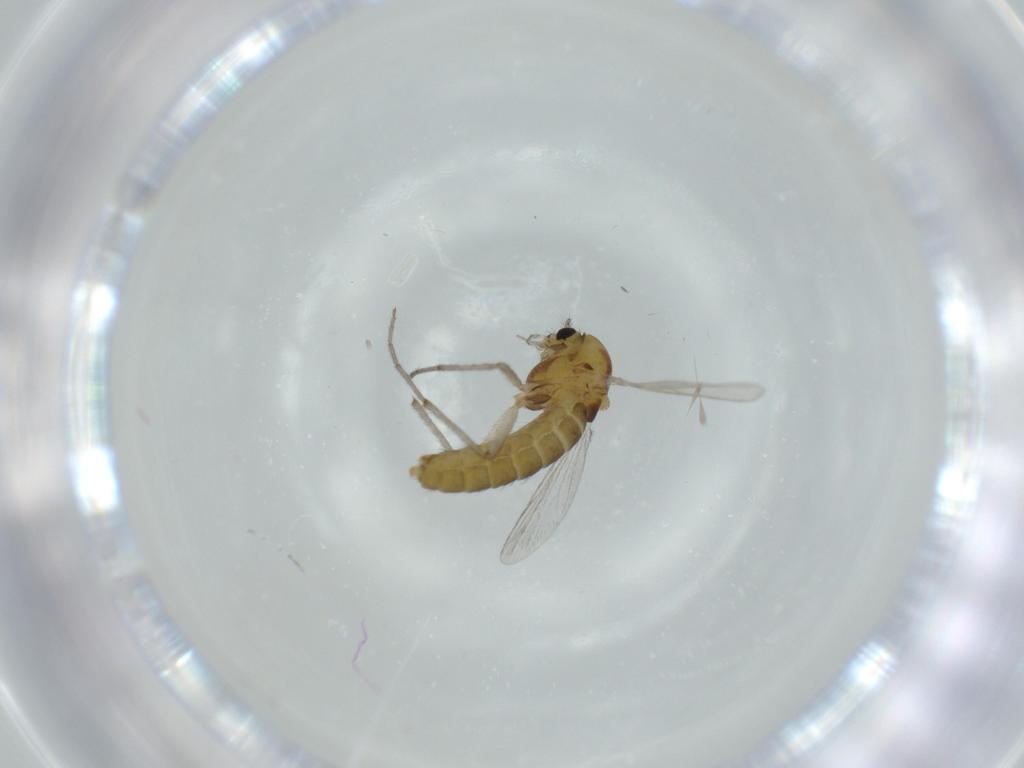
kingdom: Animalia
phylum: Arthropoda
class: Insecta
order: Diptera
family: Chironomidae
